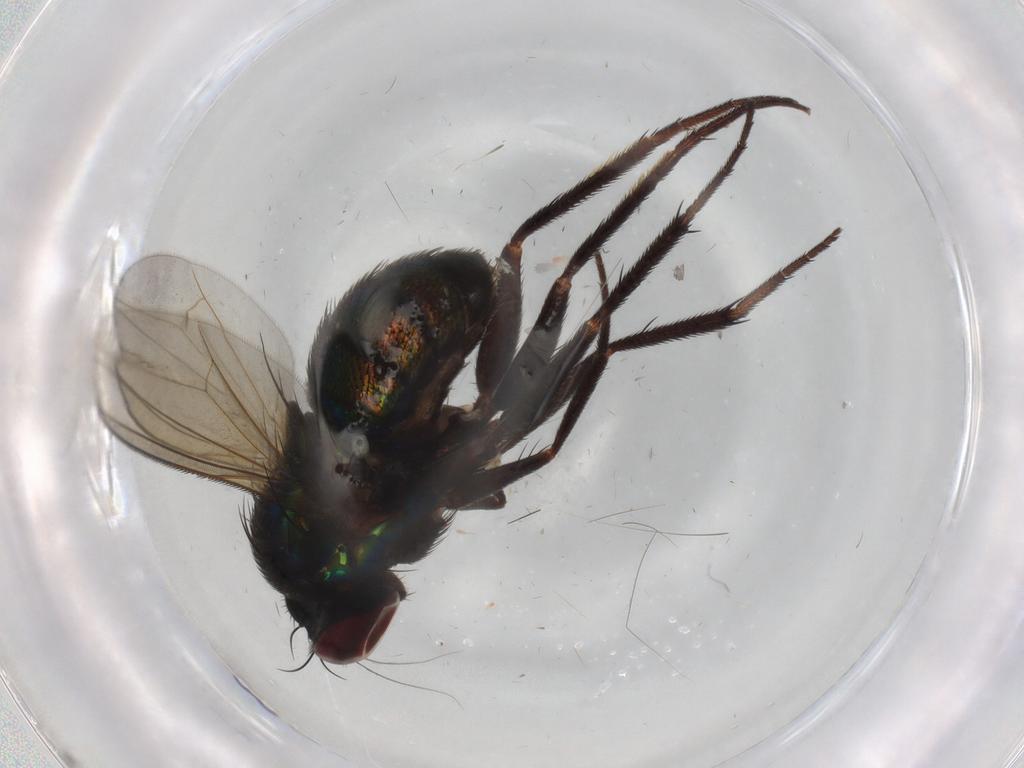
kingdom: Animalia
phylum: Arthropoda
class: Insecta
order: Diptera
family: Dolichopodidae
